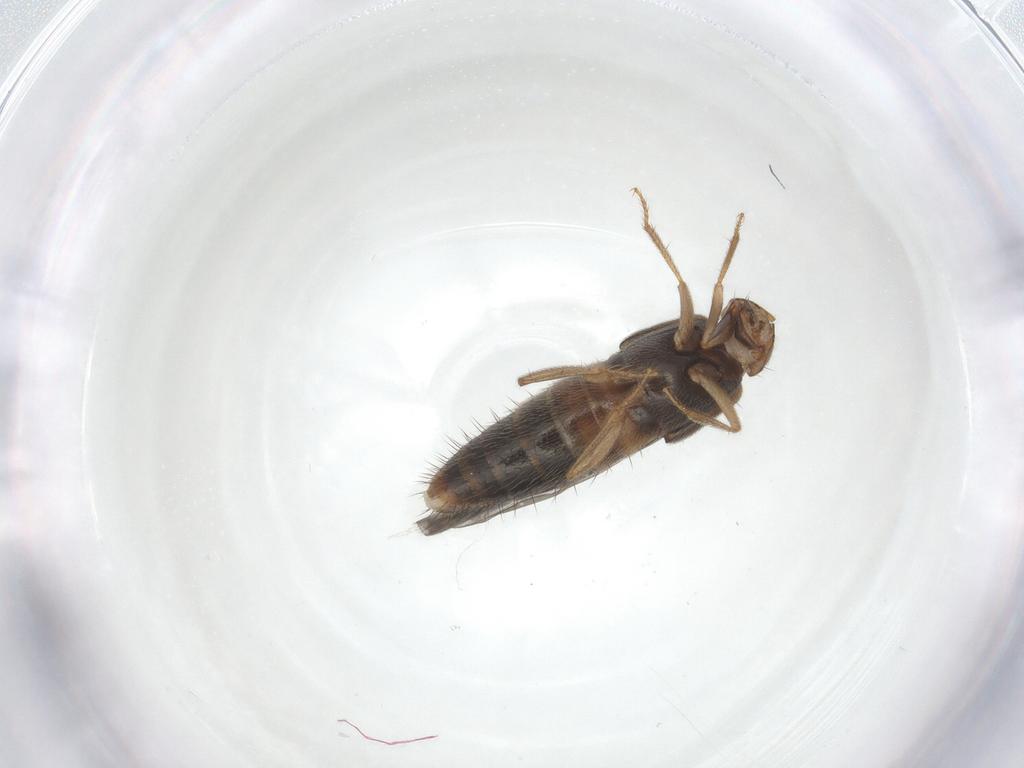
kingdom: Animalia
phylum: Arthropoda
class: Insecta
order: Coleoptera
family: Staphylinidae
